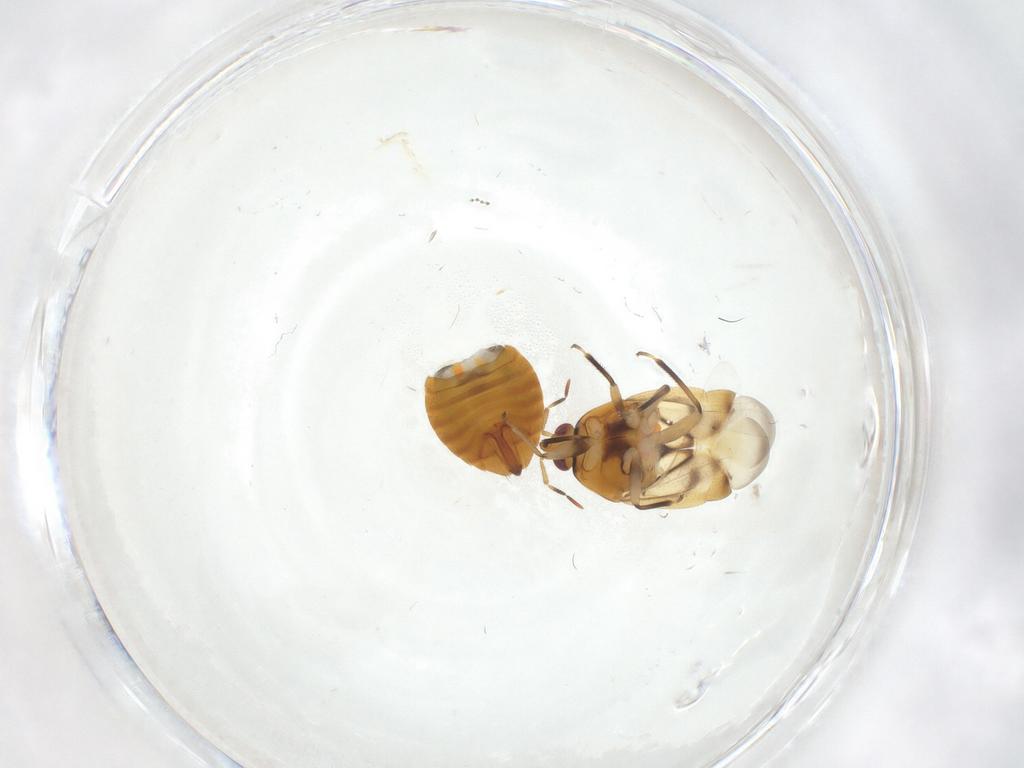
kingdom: Animalia
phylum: Arthropoda
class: Insecta
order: Hemiptera
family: Anthocoridae
